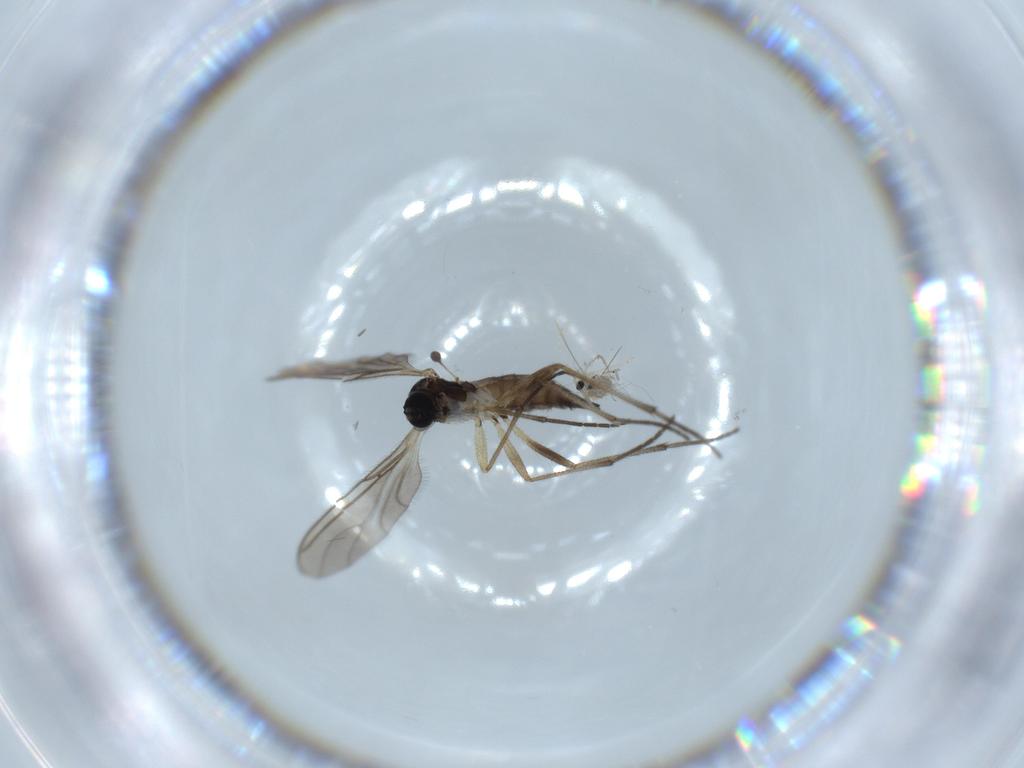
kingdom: Animalia
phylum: Arthropoda
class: Insecta
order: Diptera
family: Sciaridae
